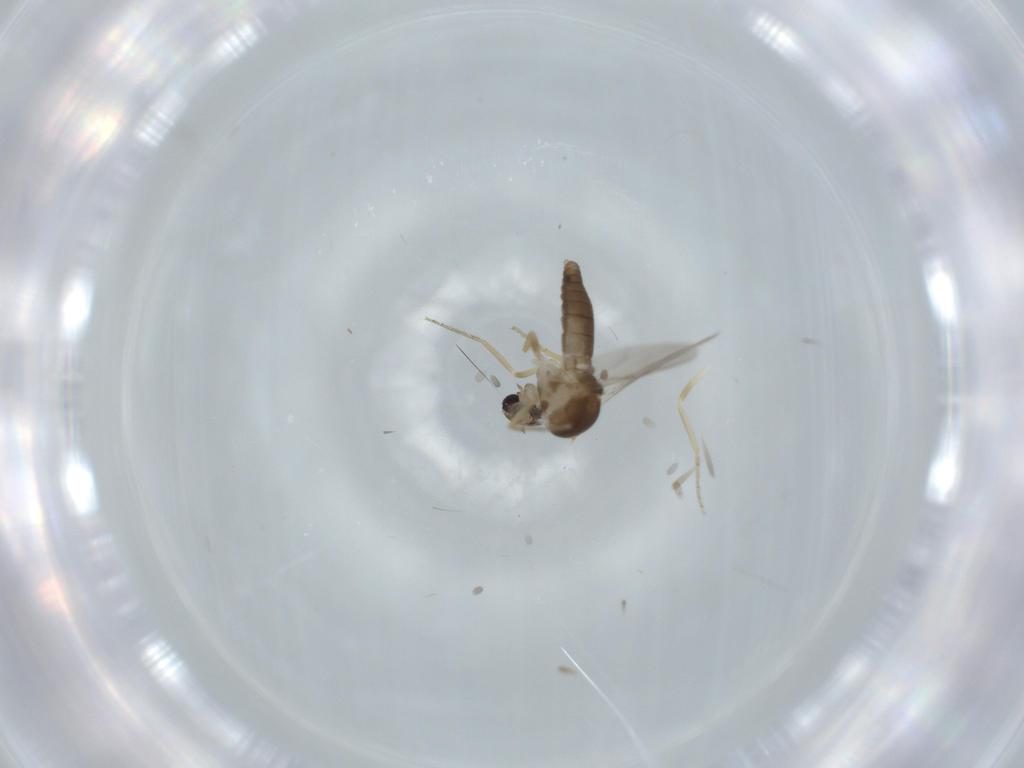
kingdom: Animalia
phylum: Arthropoda
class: Insecta
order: Diptera
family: Ceratopogonidae
